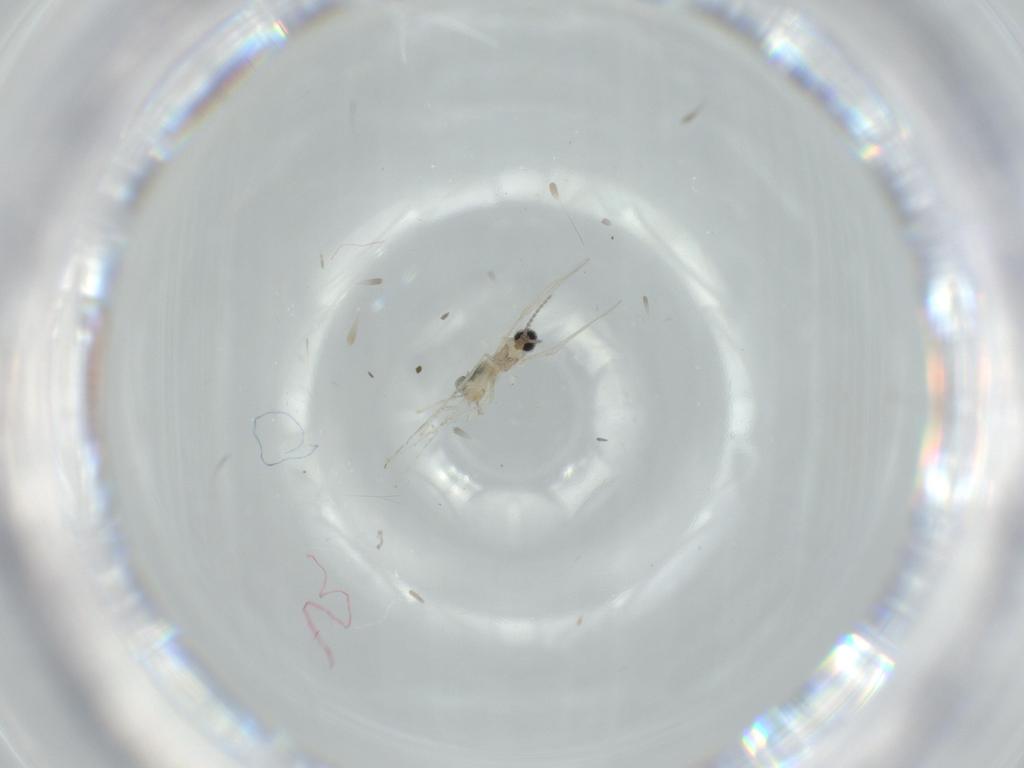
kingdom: Animalia
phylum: Arthropoda
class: Insecta
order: Diptera
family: Cecidomyiidae
